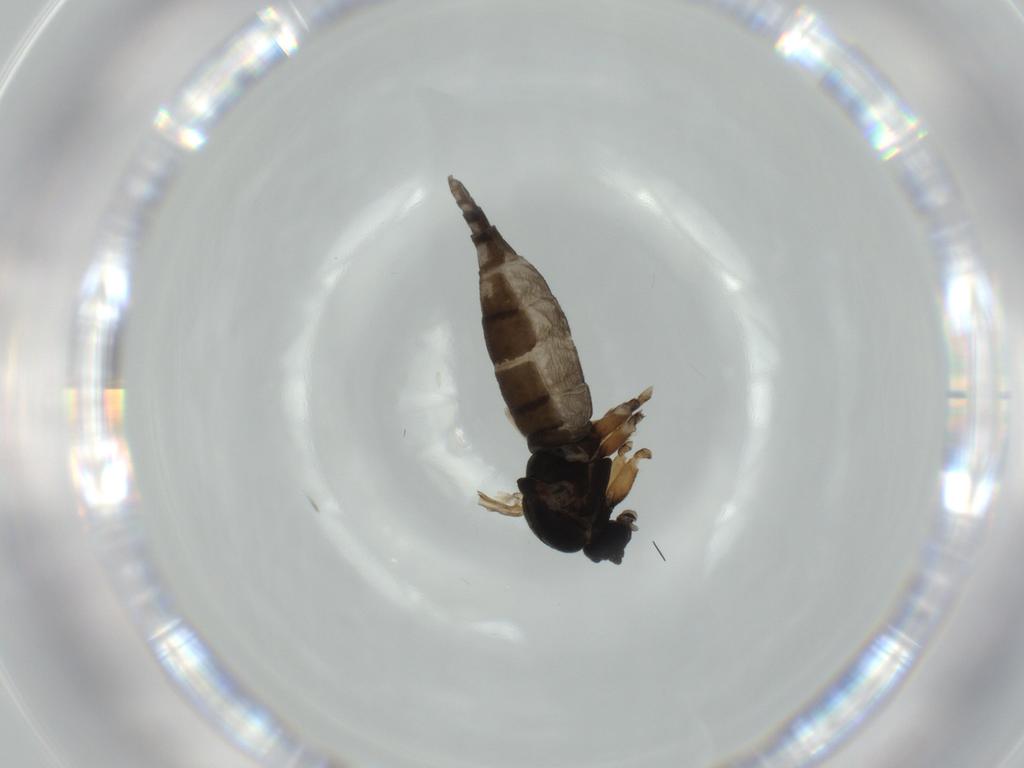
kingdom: Animalia
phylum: Arthropoda
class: Insecta
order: Diptera
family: Sciaridae
